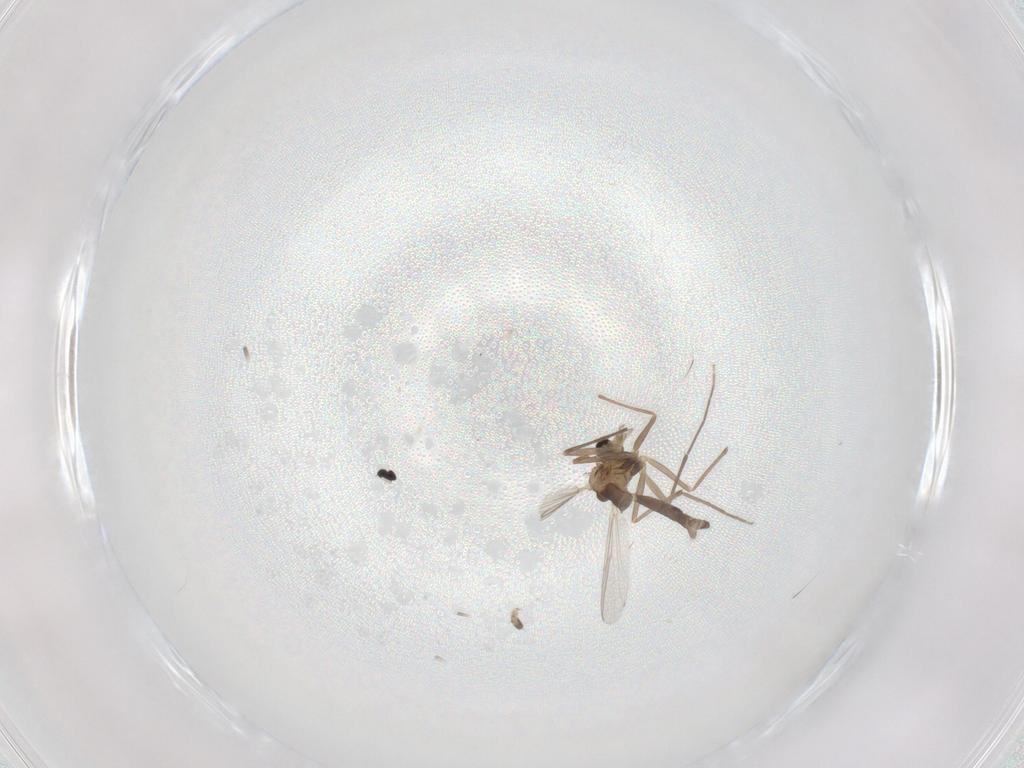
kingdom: Animalia
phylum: Arthropoda
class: Insecta
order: Diptera
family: Chironomidae
